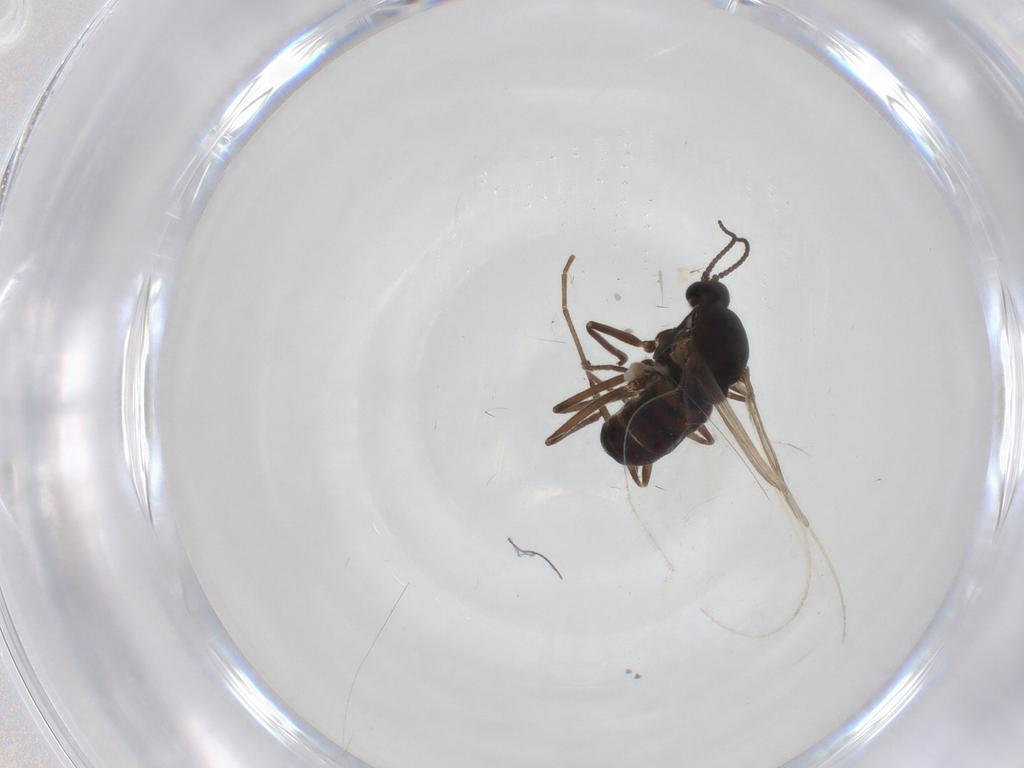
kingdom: Animalia
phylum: Arthropoda
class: Insecta
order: Diptera
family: Cecidomyiidae
